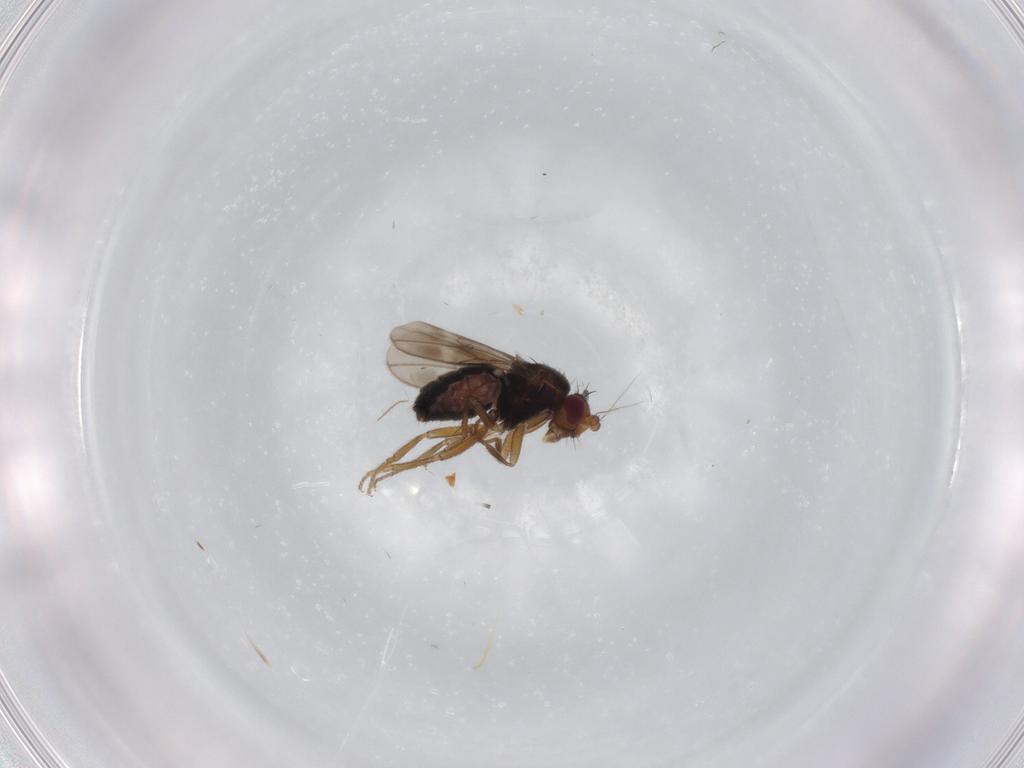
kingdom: Animalia
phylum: Arthropoda
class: Insecta
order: Diptera
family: Sphaeroceridae
